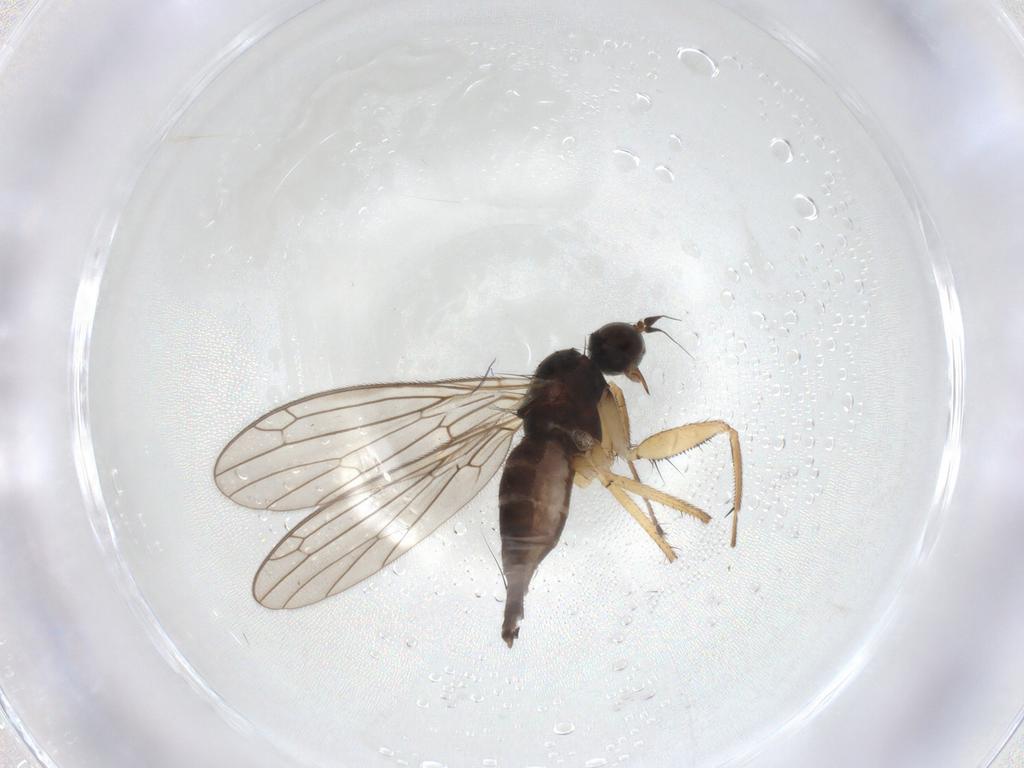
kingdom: Animalia
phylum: Arthropoda
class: Insecta
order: Diptera
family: Chironomidae
